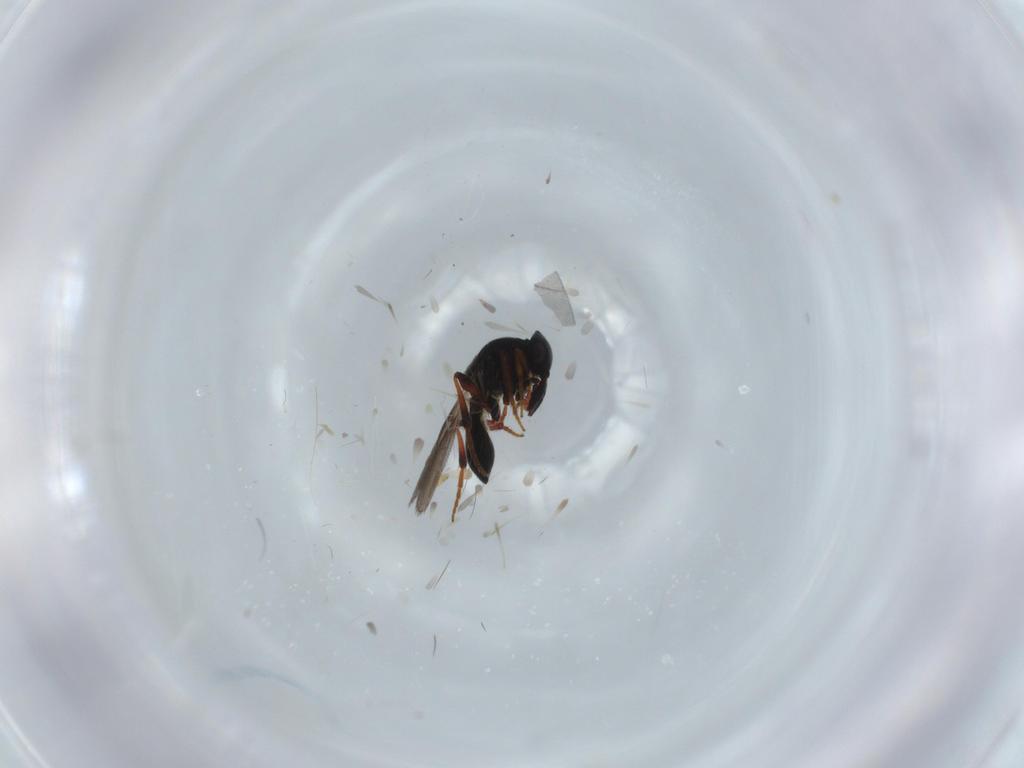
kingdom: Animalia
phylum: Arthropoda
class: Insecta
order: Hymenoptera
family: Platygastridae
